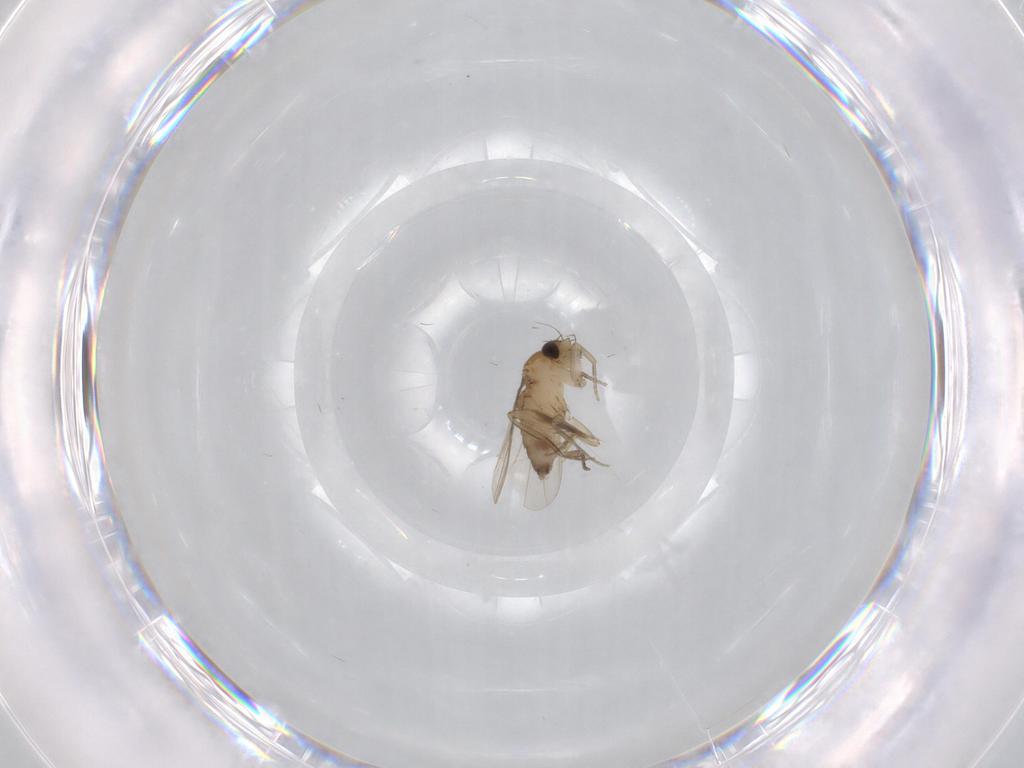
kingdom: Animalia
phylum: Arthropoda
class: Insecta
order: Diptera
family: Phoridae
